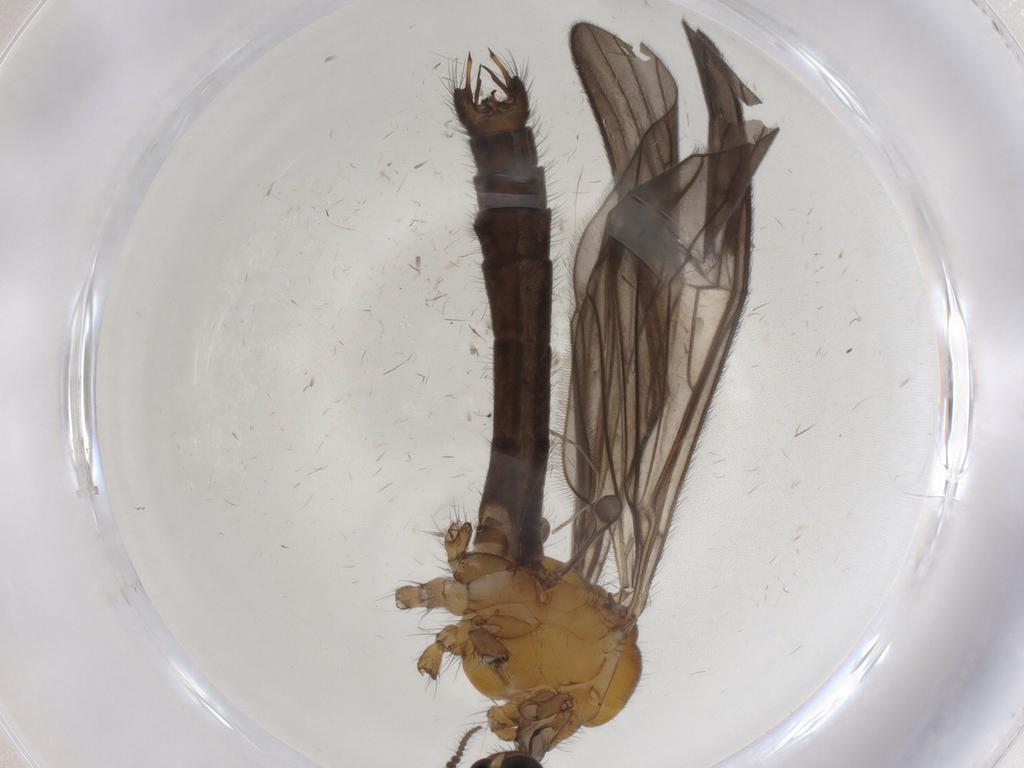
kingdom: Animalia
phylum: Arthropoda
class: Insecta
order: Diptera
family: Limoniidae
